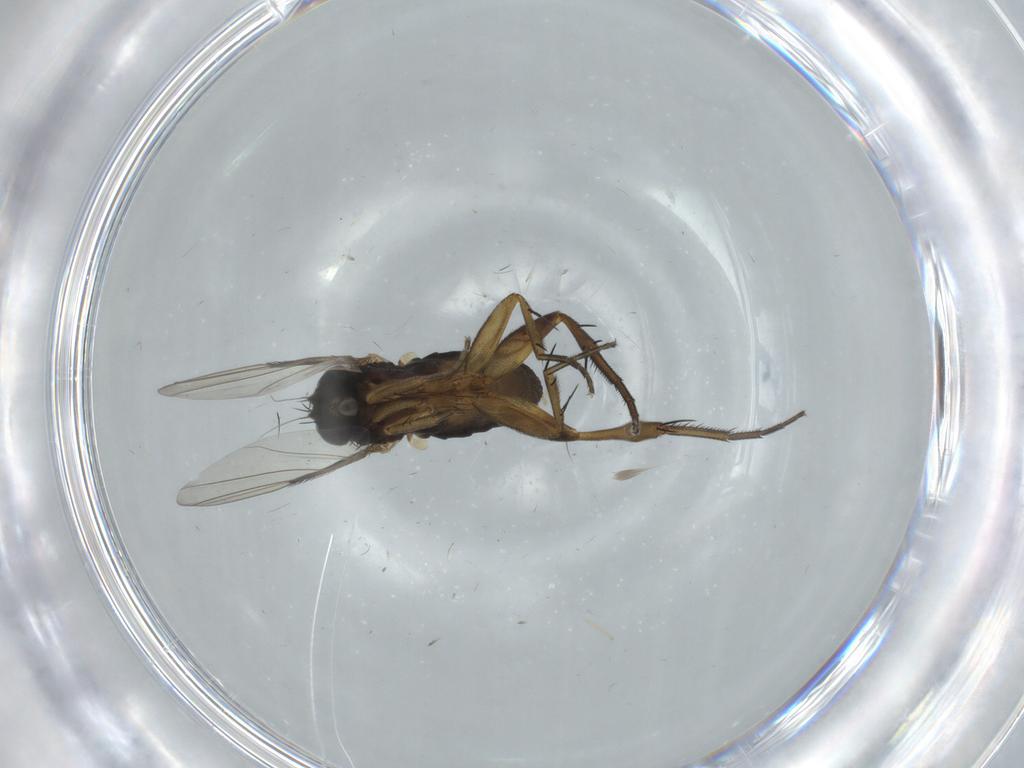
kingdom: Animalia
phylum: Arthropoda
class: Insecta
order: Diptera
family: Phoridae
